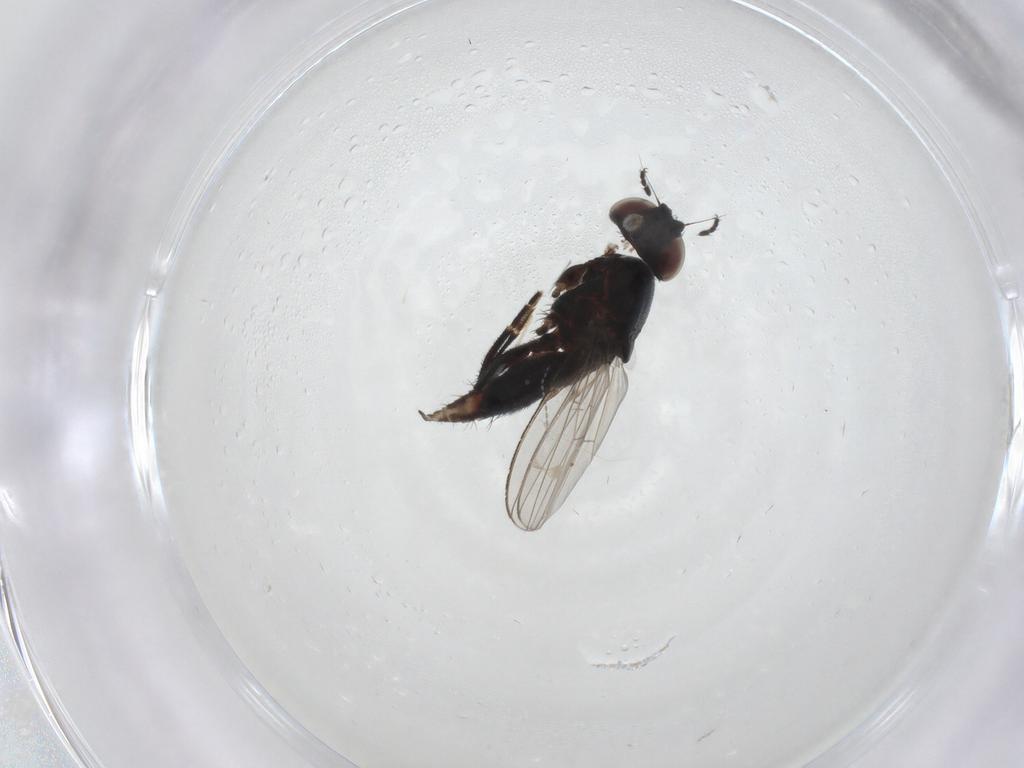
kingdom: Animalia
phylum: Arthropoda
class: Insecta
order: Diptera
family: Milichiidae
